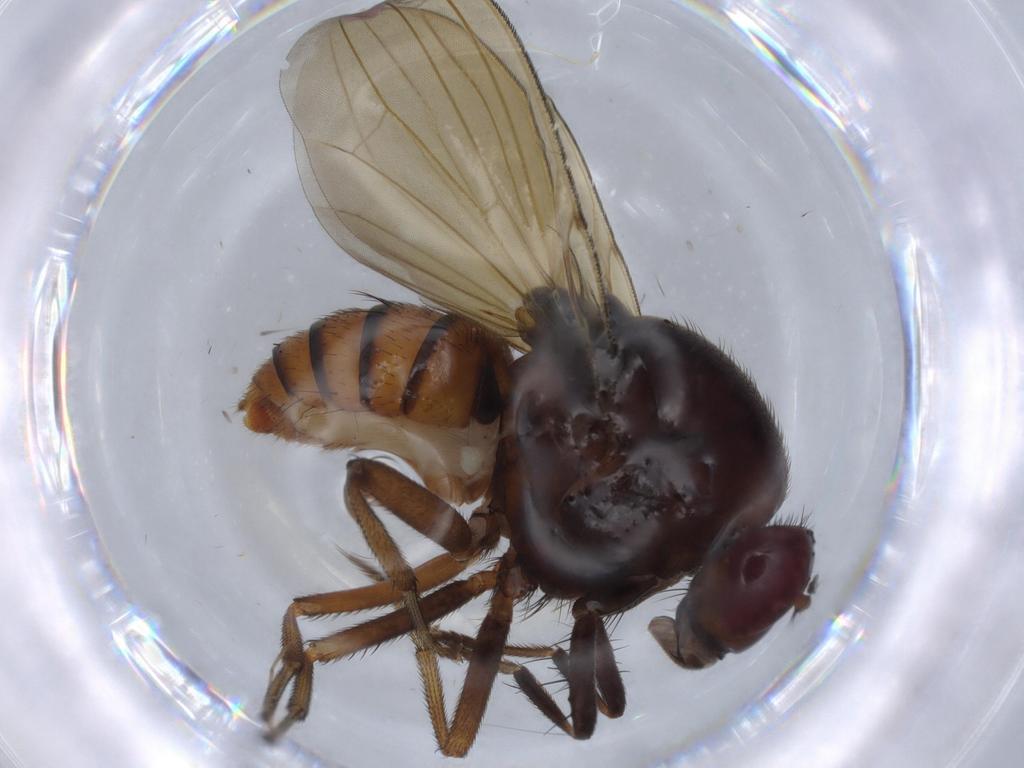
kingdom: Animalia
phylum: Arthropoda
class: Insecta
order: Diptera
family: Lauxaniidae
